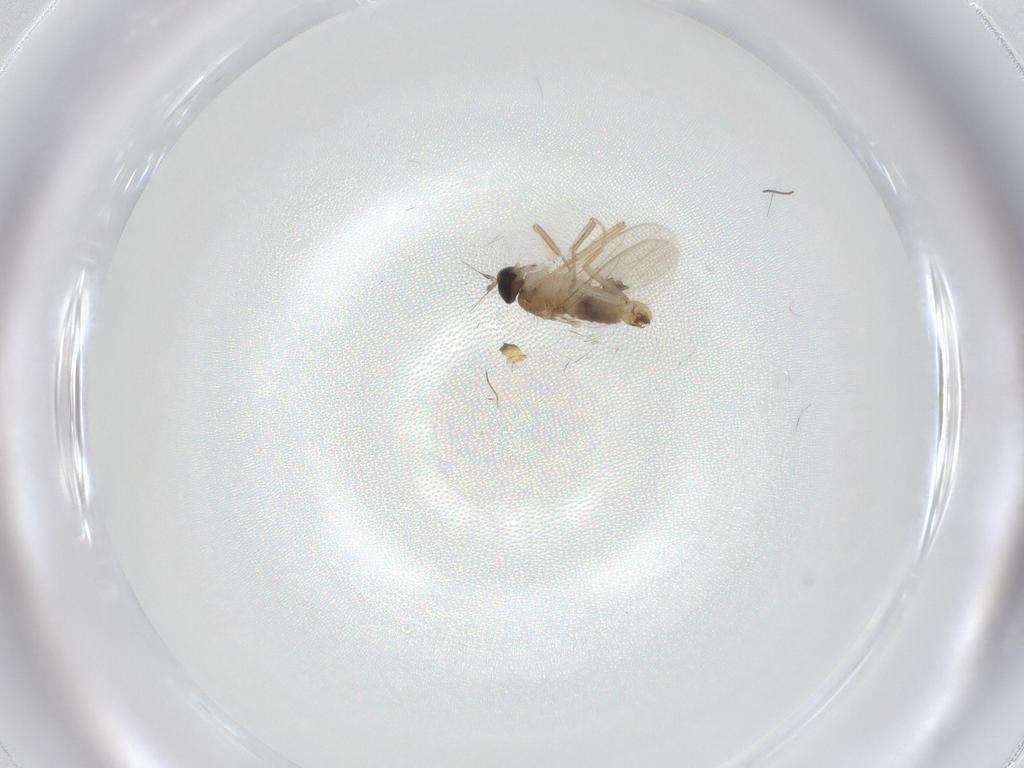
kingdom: Animalia
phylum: Arthropoda
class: Insecta
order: Diptera
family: Hybotidae
